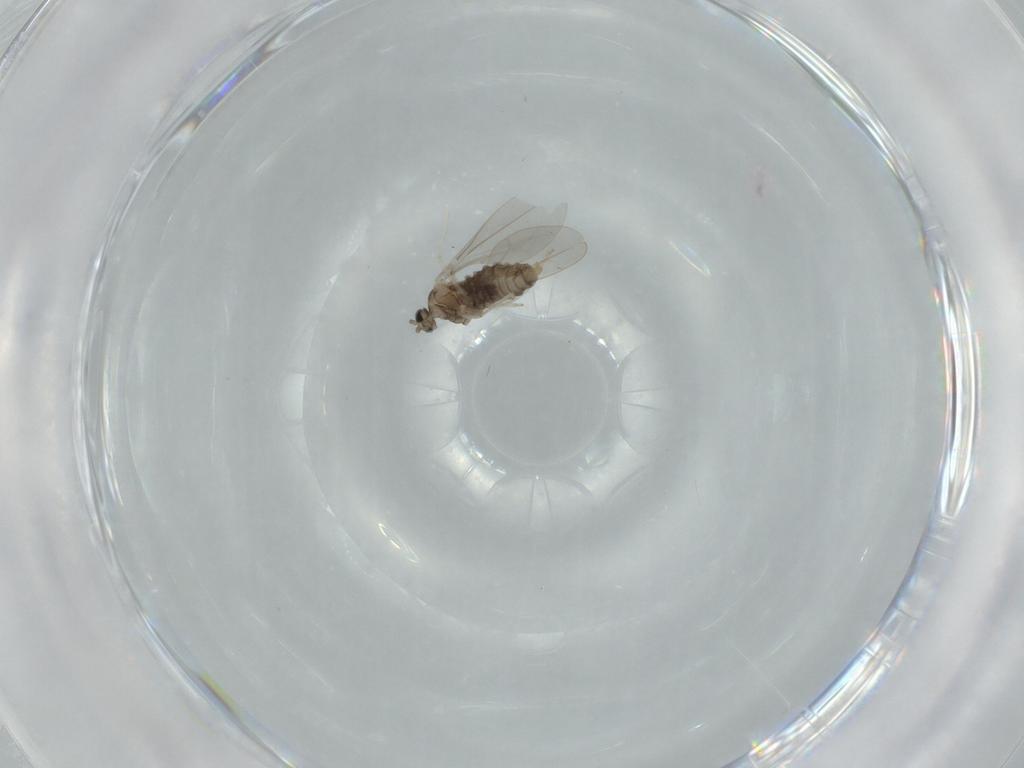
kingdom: Animalia
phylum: Arthropoda
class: Insecta
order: Diptera
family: Cecidomyiidae
